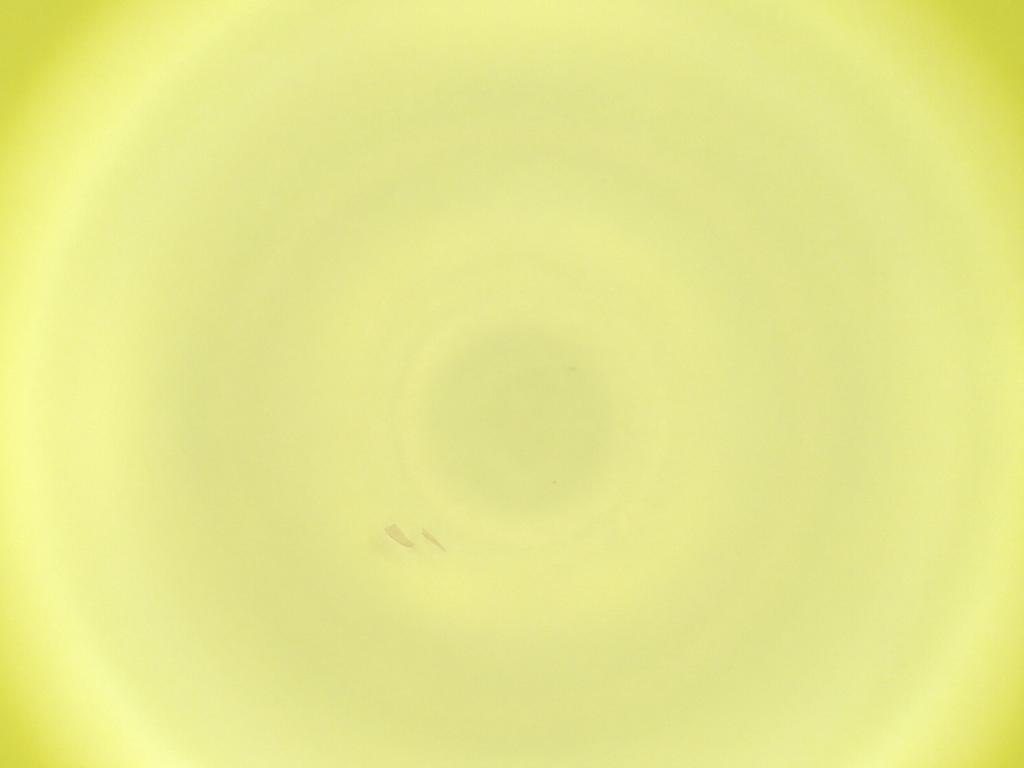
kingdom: Animalia
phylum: Arthropoda
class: Insecta
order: Diptera
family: Cecidomyiidae
